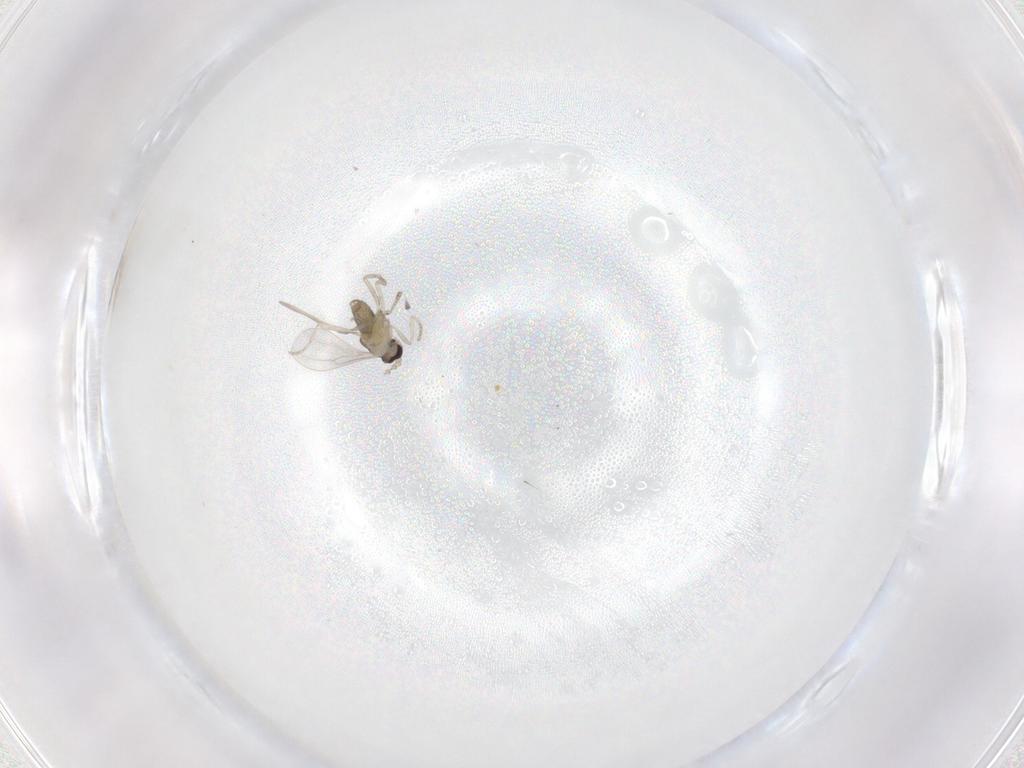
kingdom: Animalia
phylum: Arthropoda
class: Insecta
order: Diptera
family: Cecidomyiidae
